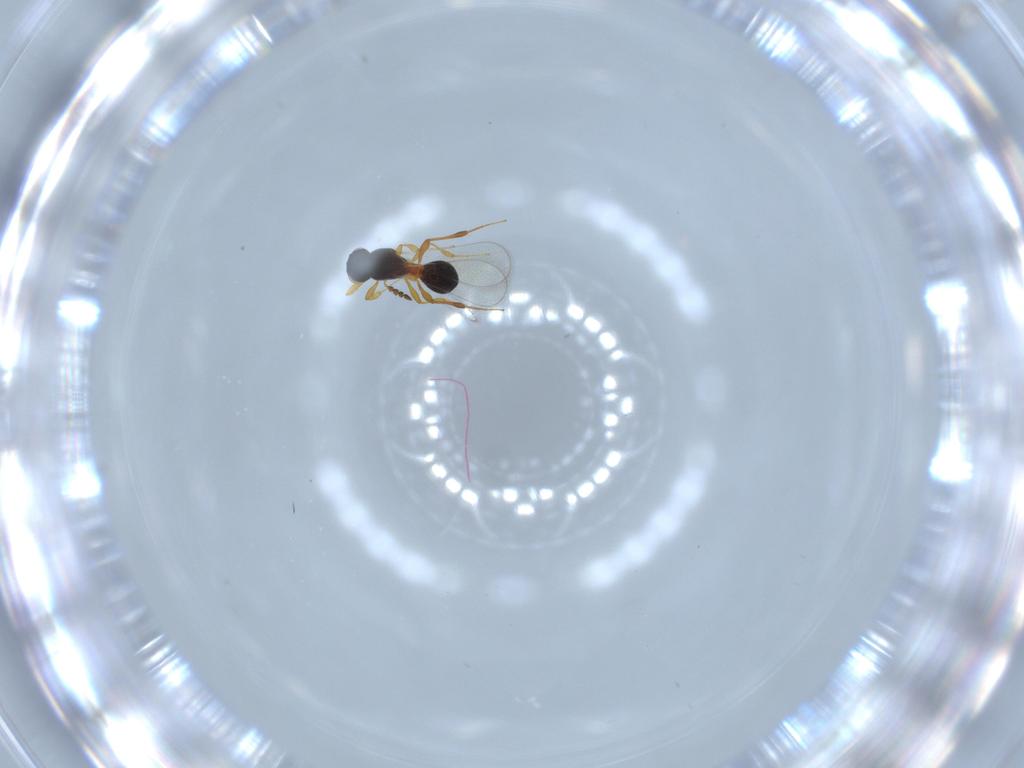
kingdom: Animalia
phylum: Arthropoda
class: Insecta
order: Hymenoptera
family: Platygastridae
